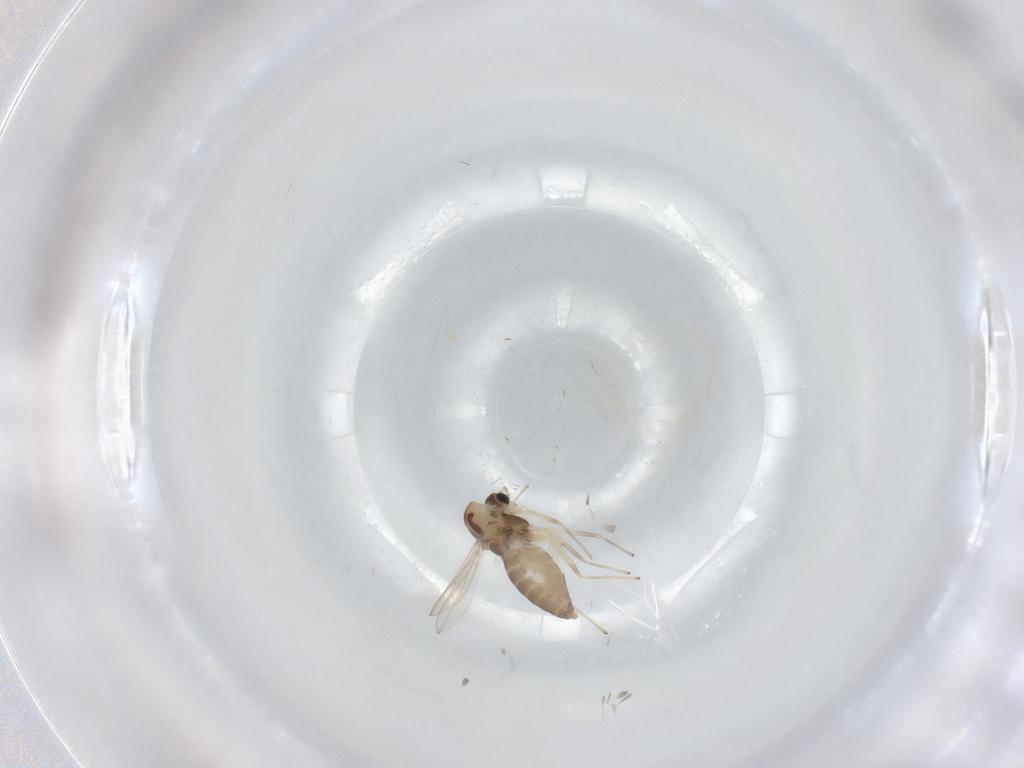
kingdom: Animalia
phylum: Arthropoda
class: Insecta
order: Diptera
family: Chironomidae
